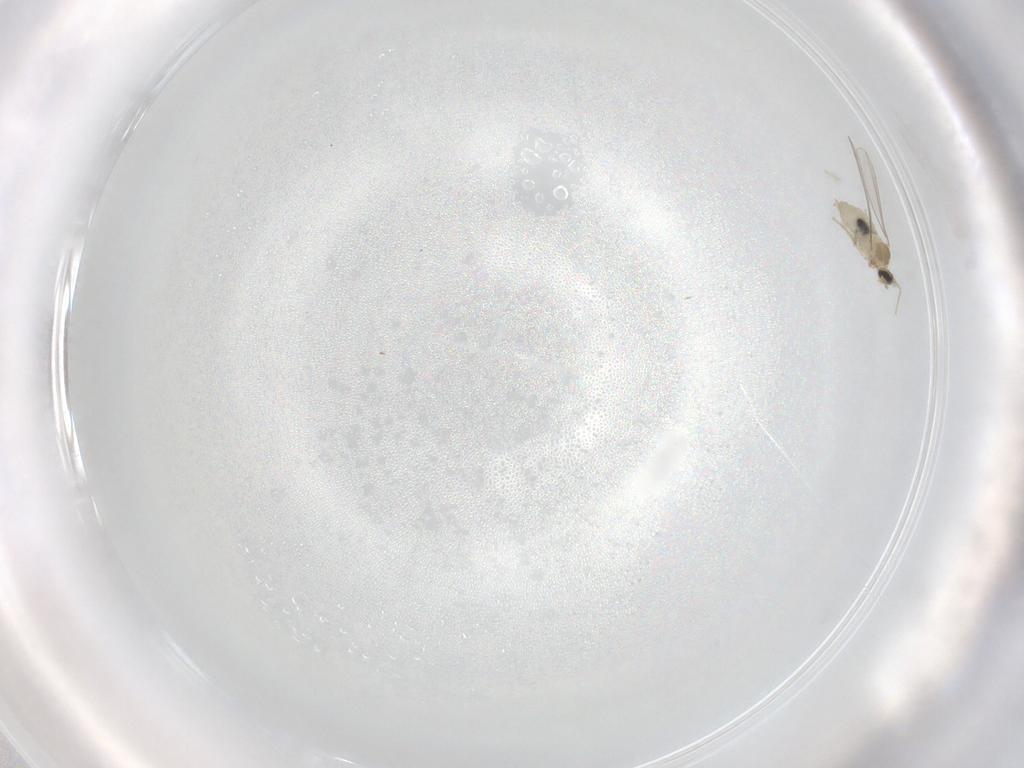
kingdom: Animalia
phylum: Arthropoda
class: Insecta
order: Diptera
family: Cecidomyiidae
